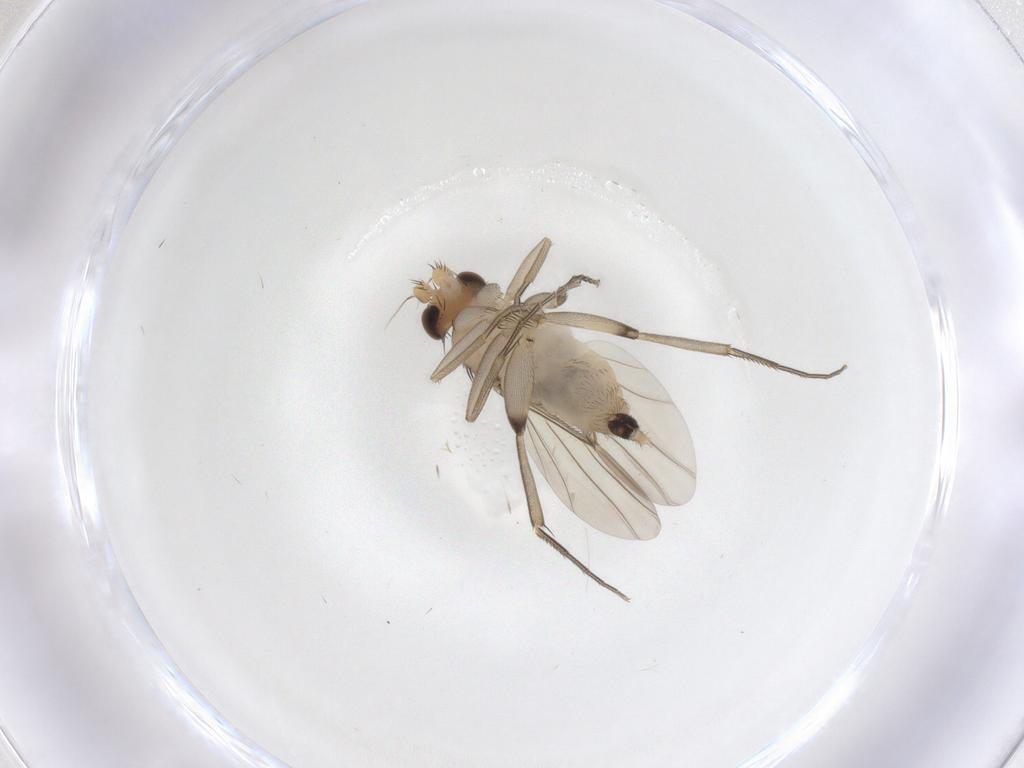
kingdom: Animalia
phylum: Arthropoda
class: Insecta
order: Diptera
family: Phoridae
